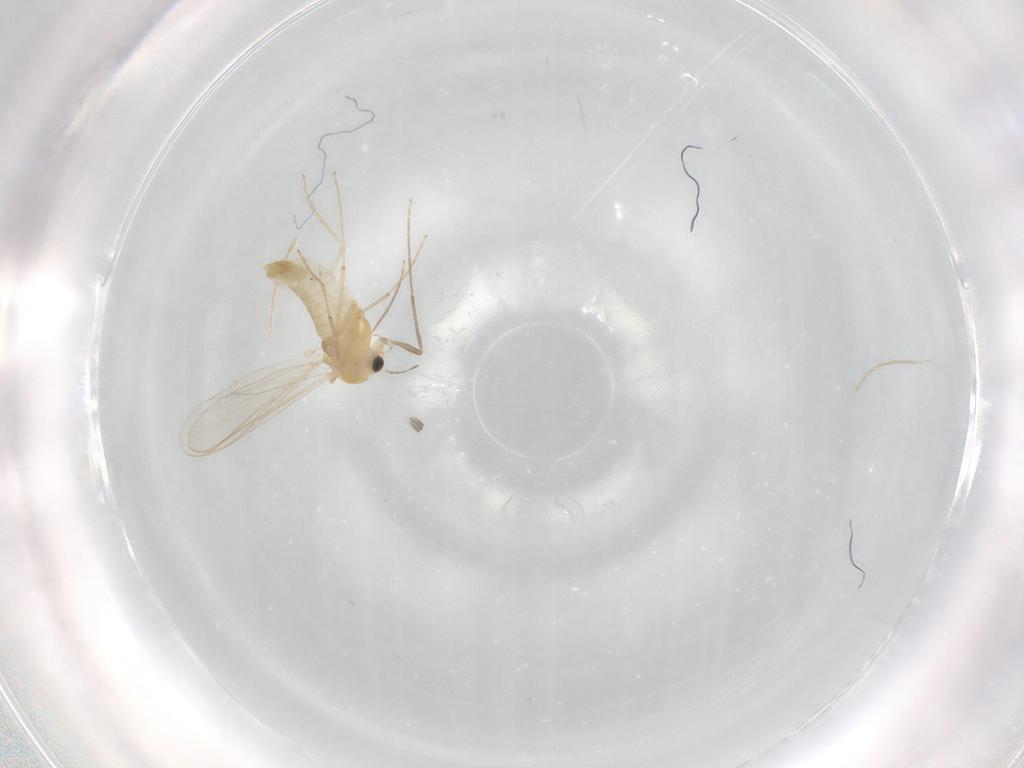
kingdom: Animalia
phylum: Arthropoda
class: Insecta
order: Diptera
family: Chironomidae
